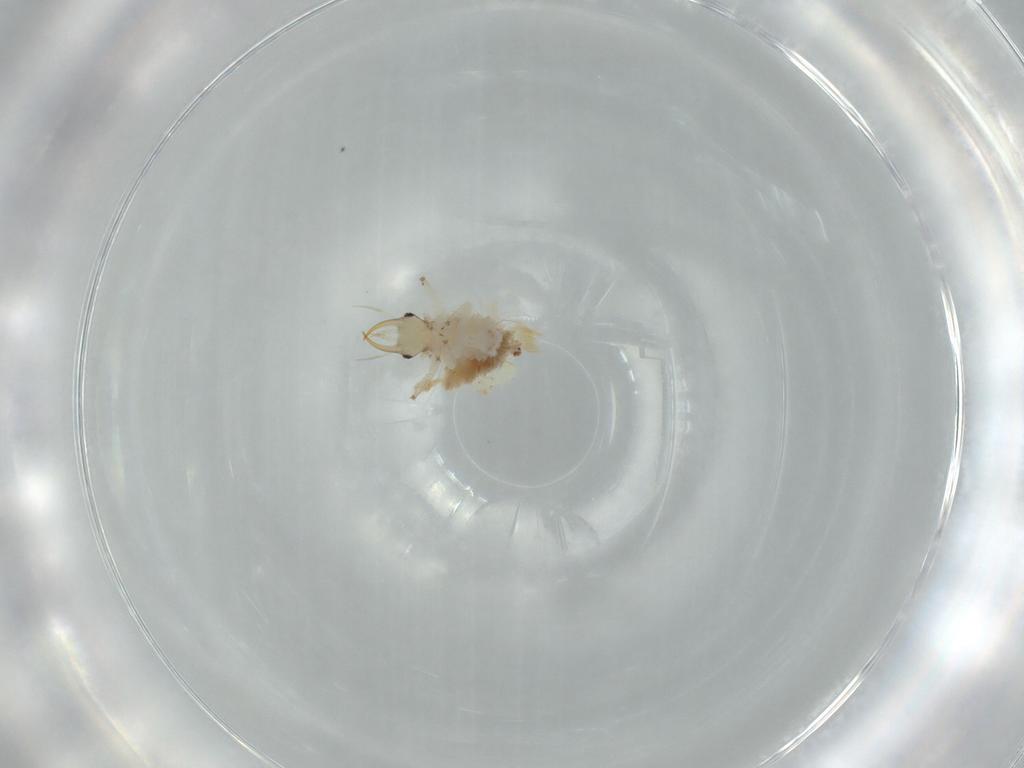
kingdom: Animalia
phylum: Arthropoda
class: Insecta
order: Neuroptera
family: Chrysopidae
